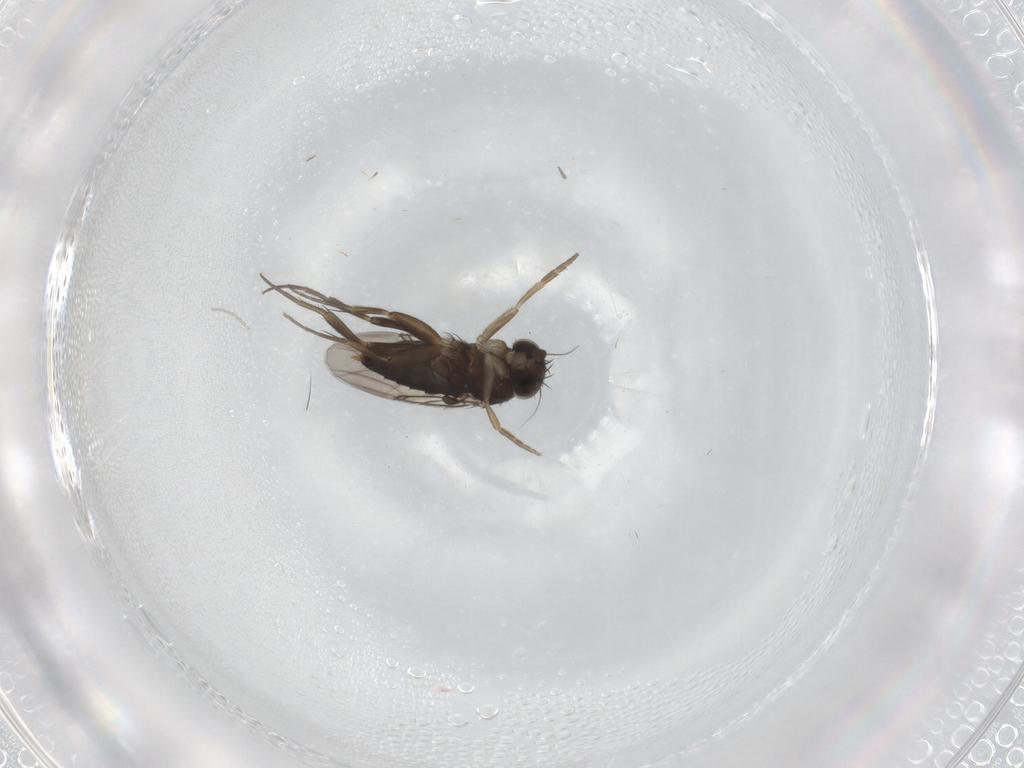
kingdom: Animalia
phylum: Arthropoda
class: Insecta
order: Diptera
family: Phoridae
